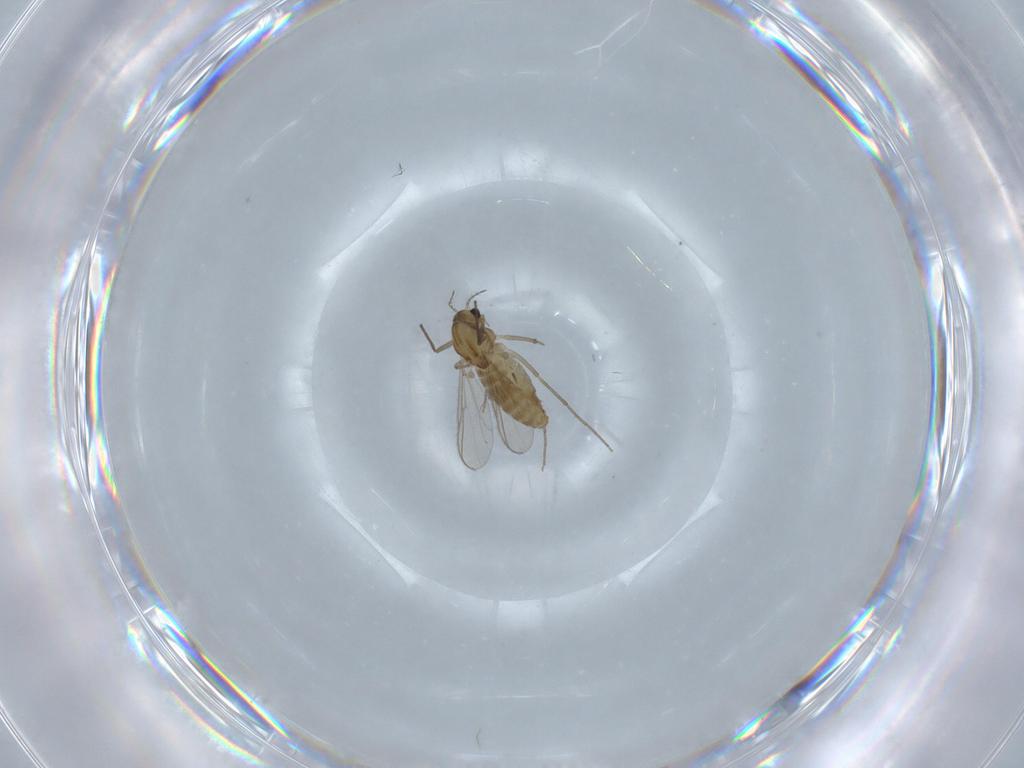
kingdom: Animalia
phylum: Arthropoda
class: Insecta
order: Diptera
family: Chironomidae
